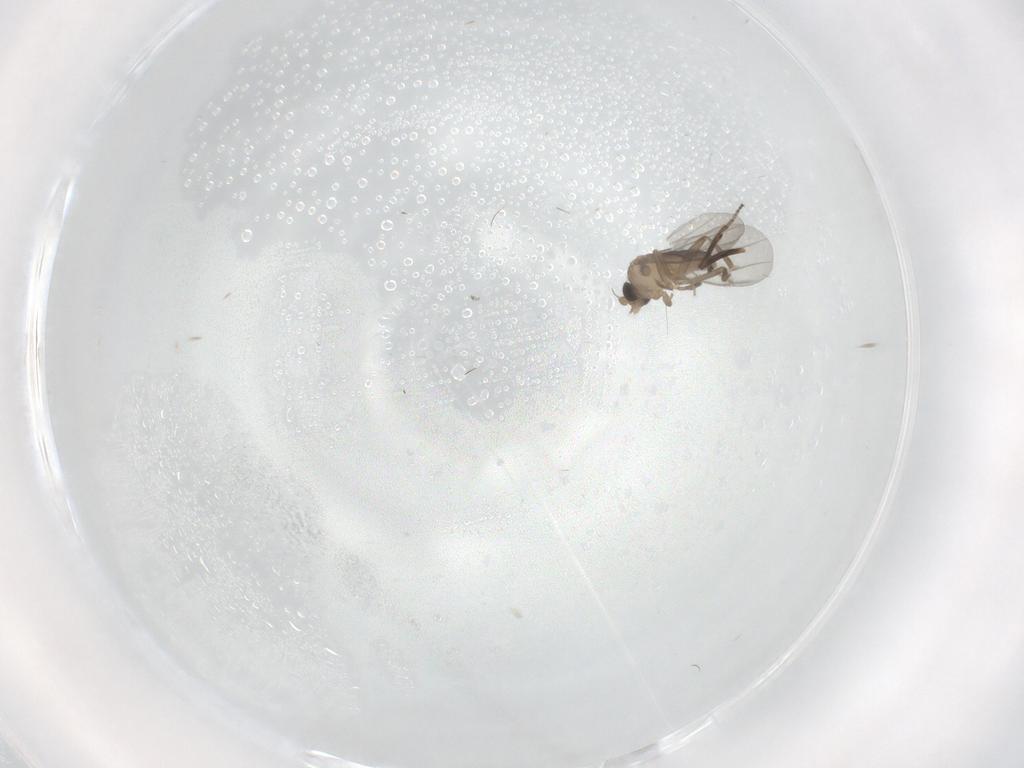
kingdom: Animalia
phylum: Arthropoda
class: Insecta
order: Diptera
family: Ceratopogonidae
